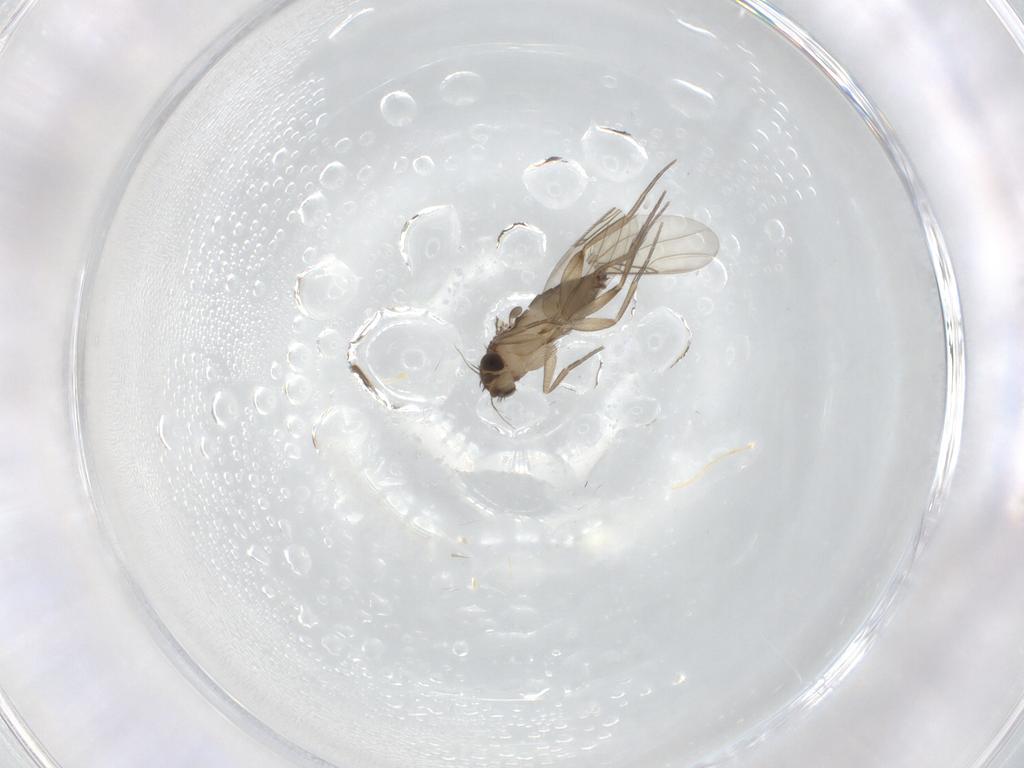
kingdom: Animalia
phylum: Arthropoda
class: Insecta
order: Diptera
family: Phoridae
